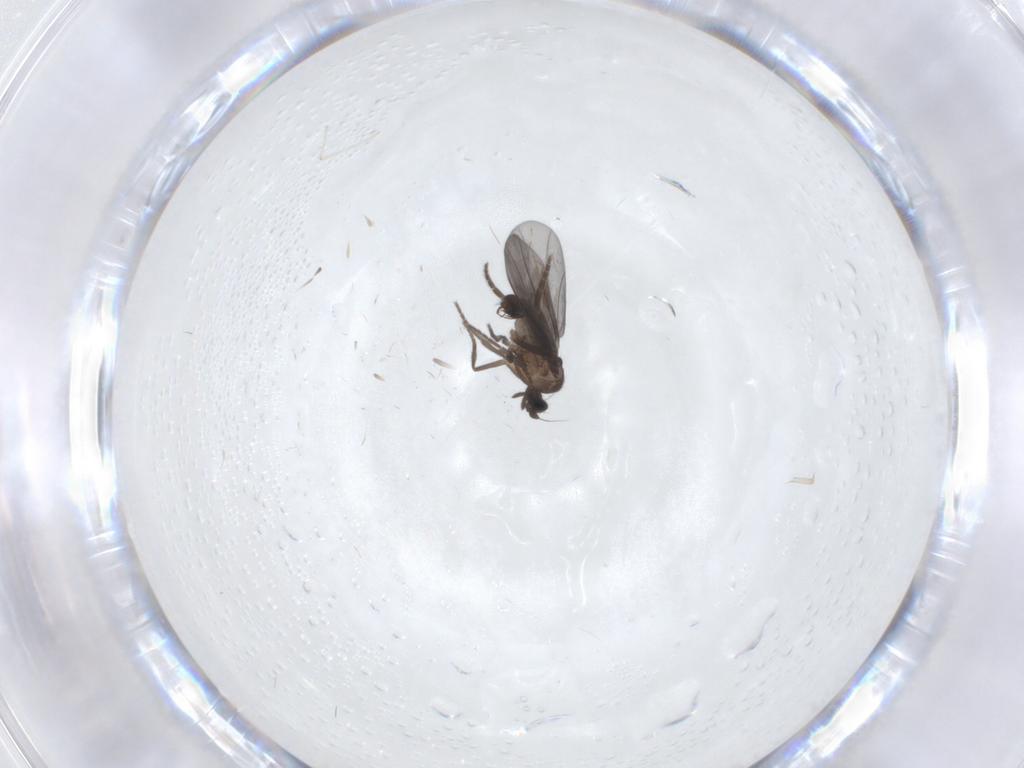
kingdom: Animalia
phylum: Arthropoda
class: Insecta
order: Diptera
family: Phoridae
